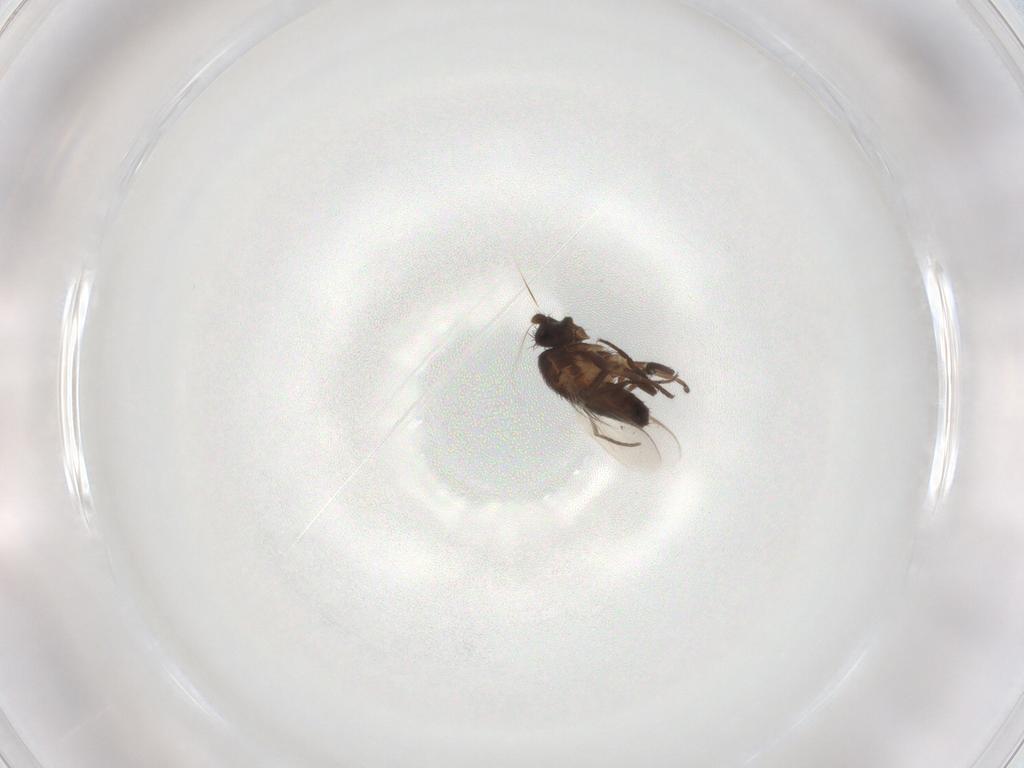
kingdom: Animalia
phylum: Arthropoda
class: Insecta
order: Diptera
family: Sphaeroceridae
